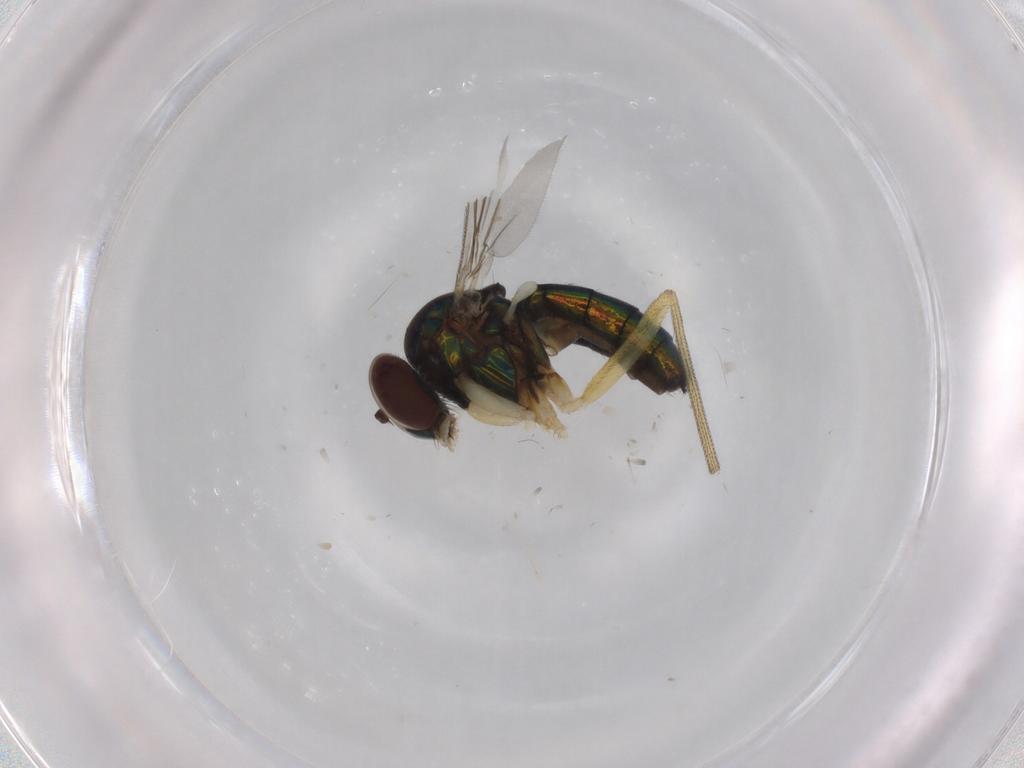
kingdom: Animalia
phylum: Arthropoda
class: Insecta
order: Diptera
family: Dolichopodidae
